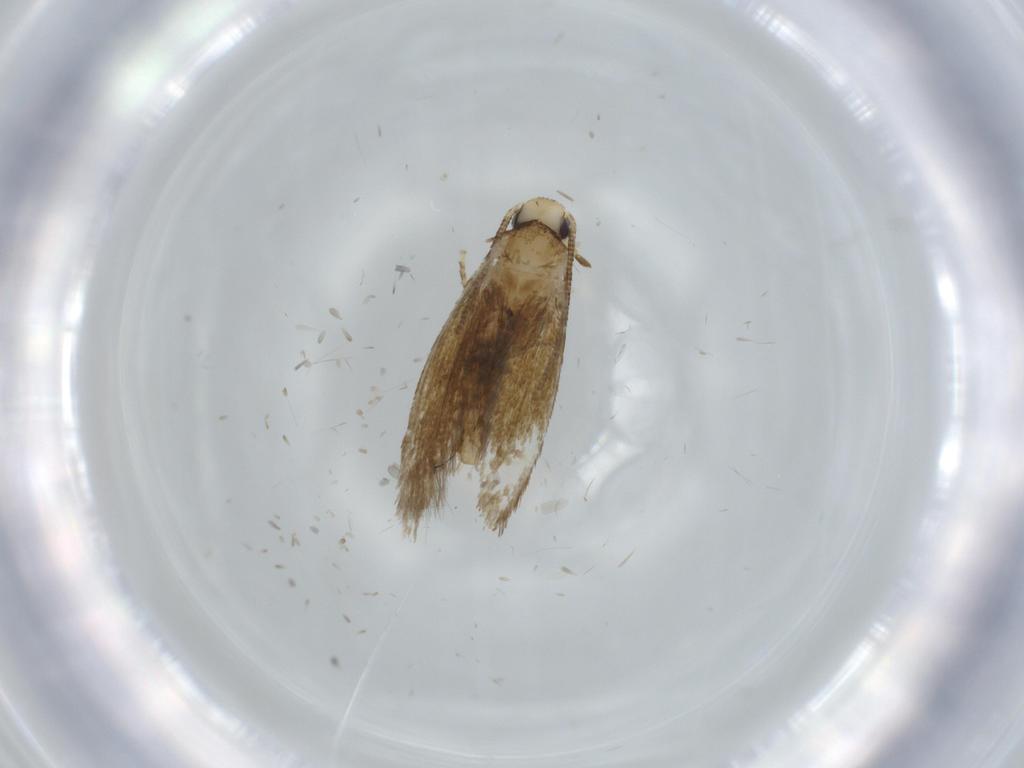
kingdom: Animalia
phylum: Arthropoda
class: Insecta
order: Lepidoptera
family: Tineidae
